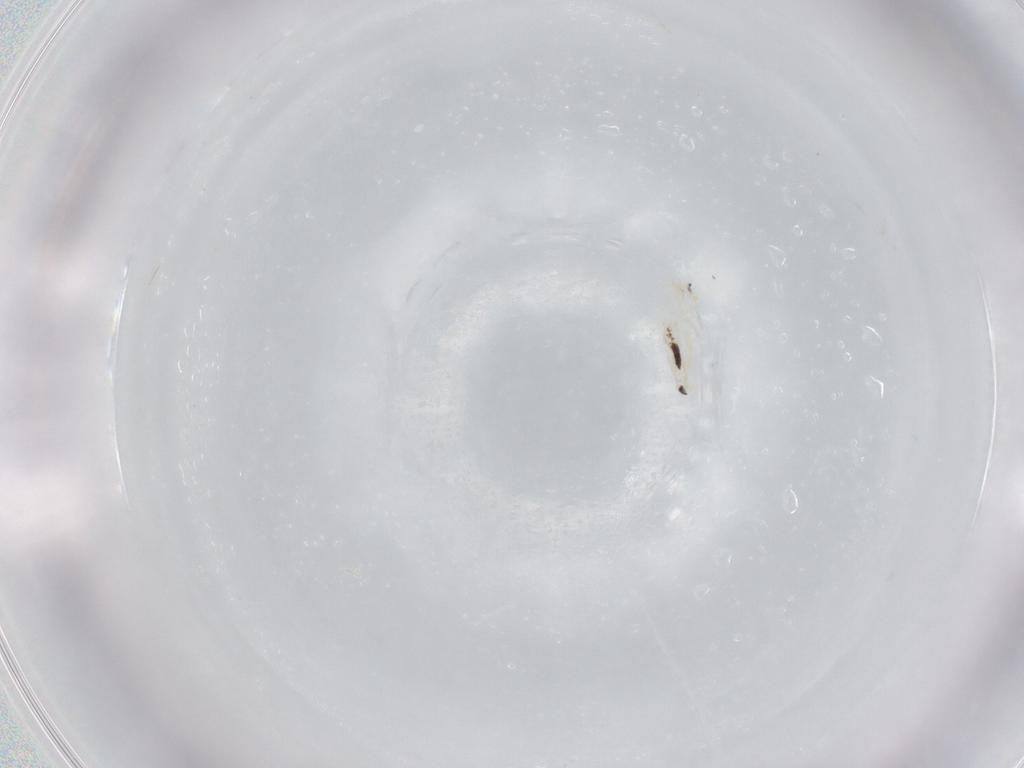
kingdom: Animalia
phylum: Arthropoda
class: Collembola
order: Entomobryomorpha
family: Entomobryidae
